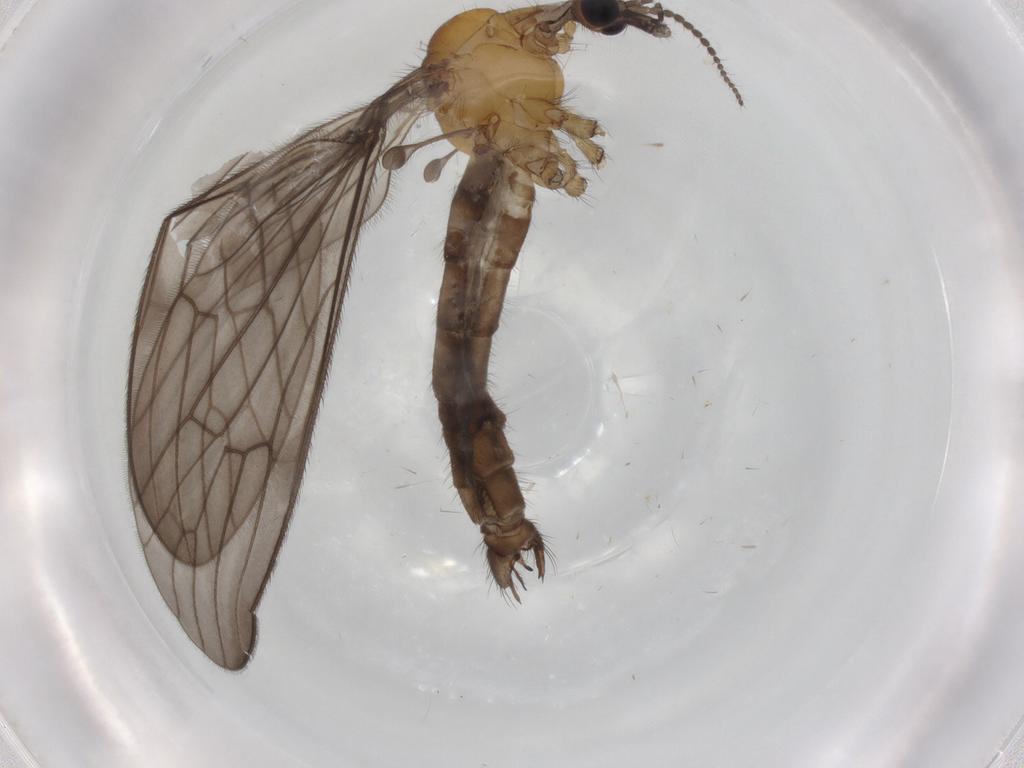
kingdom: Animalia
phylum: Arthropoda
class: Insecta
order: Diptera
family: Limoniidae
